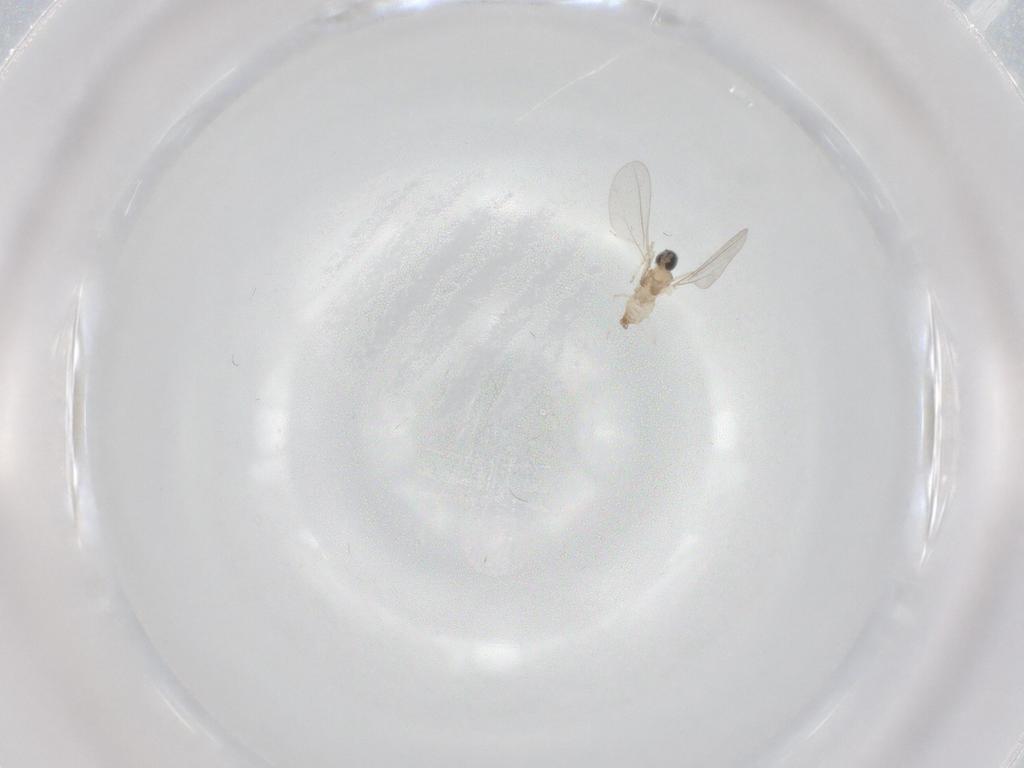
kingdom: Animalia
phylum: Arthropoda
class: Insecta
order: Diptera
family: Cecidomyiidae
